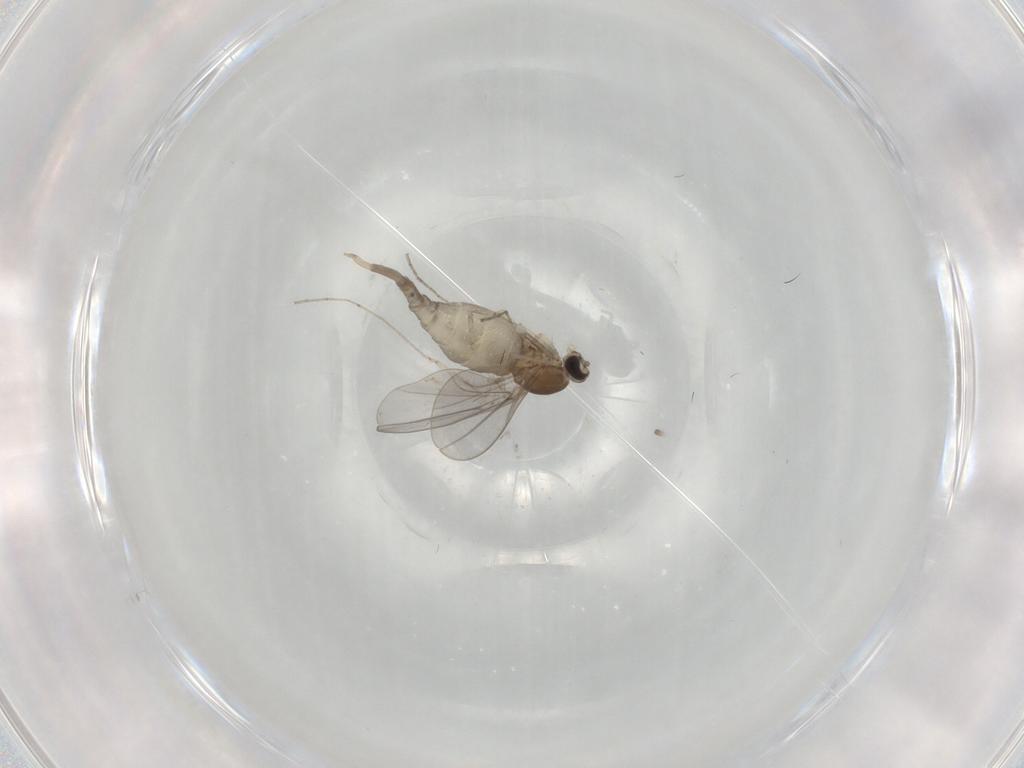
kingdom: Animalia
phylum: Arthropoda
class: Insecta
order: Diptera
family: Cecidomyiidae
